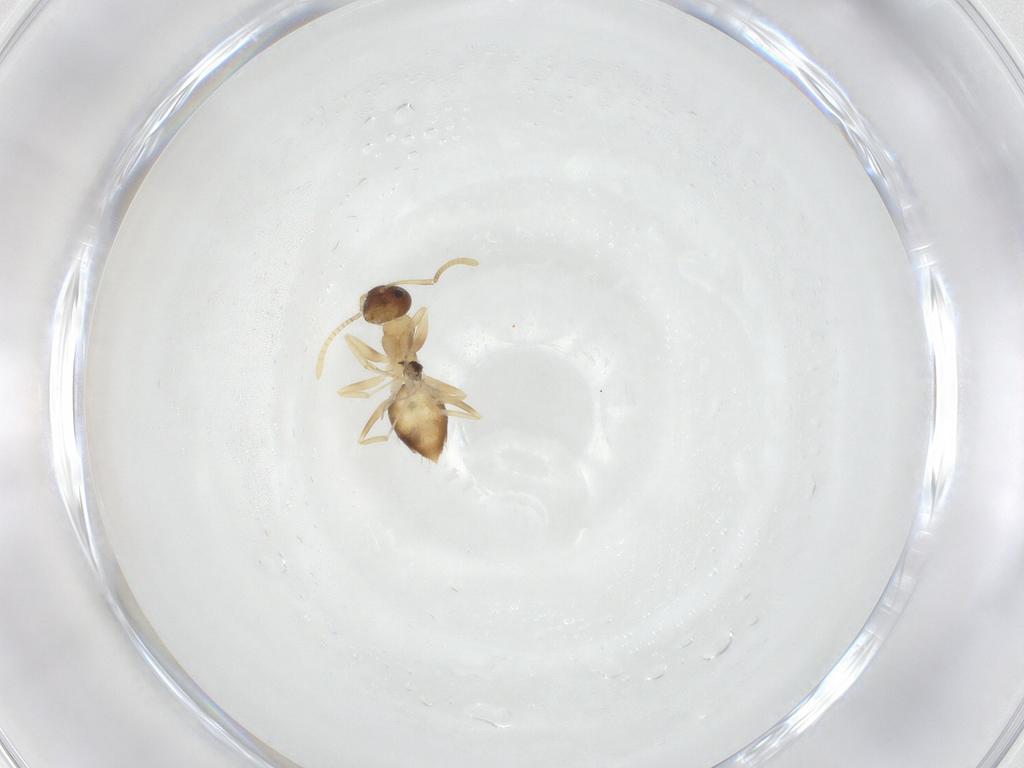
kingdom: Animalia
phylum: Arthropoda
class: Insecta
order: Hymenoptera
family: Formicidae
